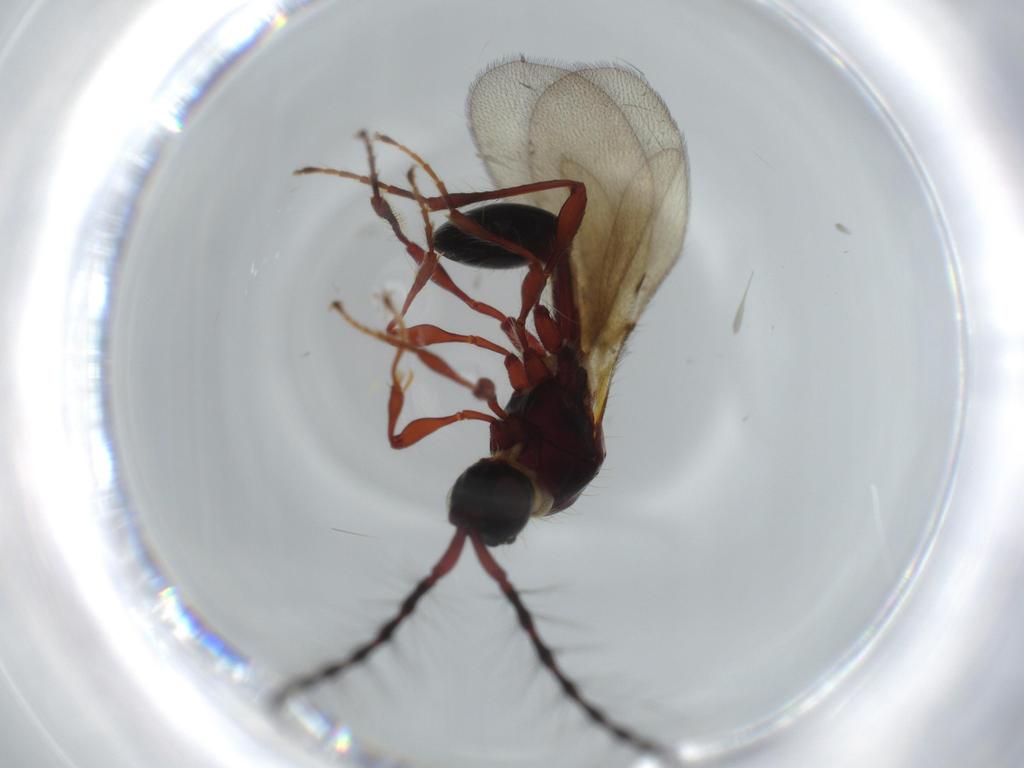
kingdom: Animalia
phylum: Arthropoda
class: Insecta
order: Hymenoptera
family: Diapriidae
